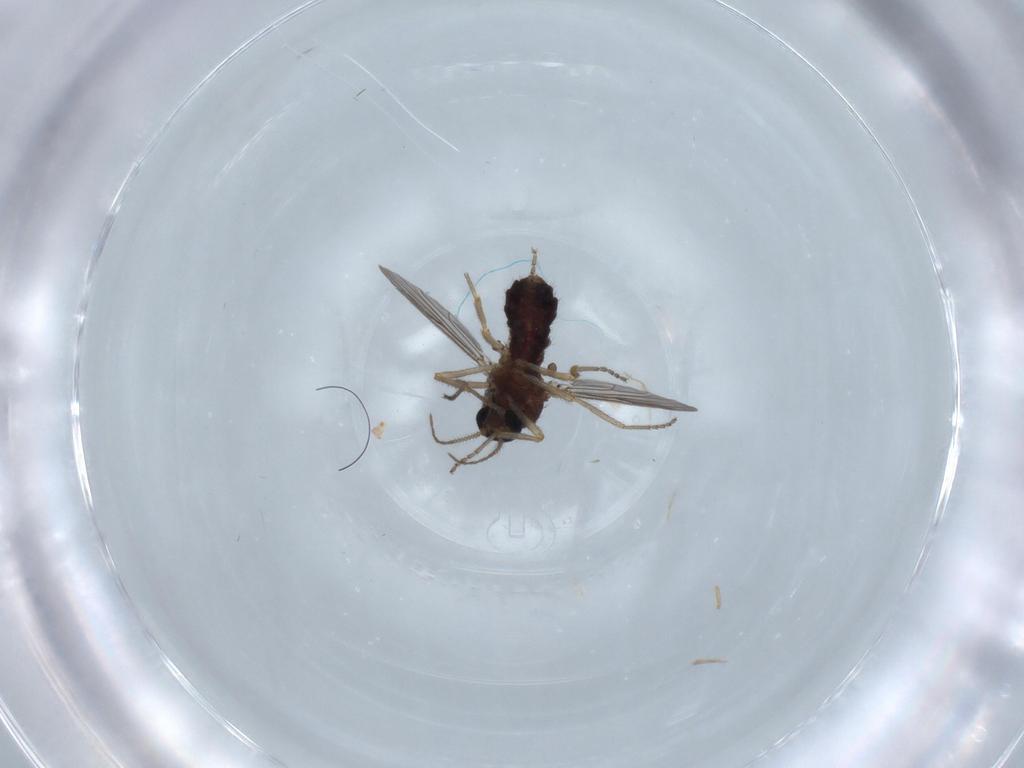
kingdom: Animalia
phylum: Arthropoda
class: Insecta
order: Diptera
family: Ceratopogonidae
